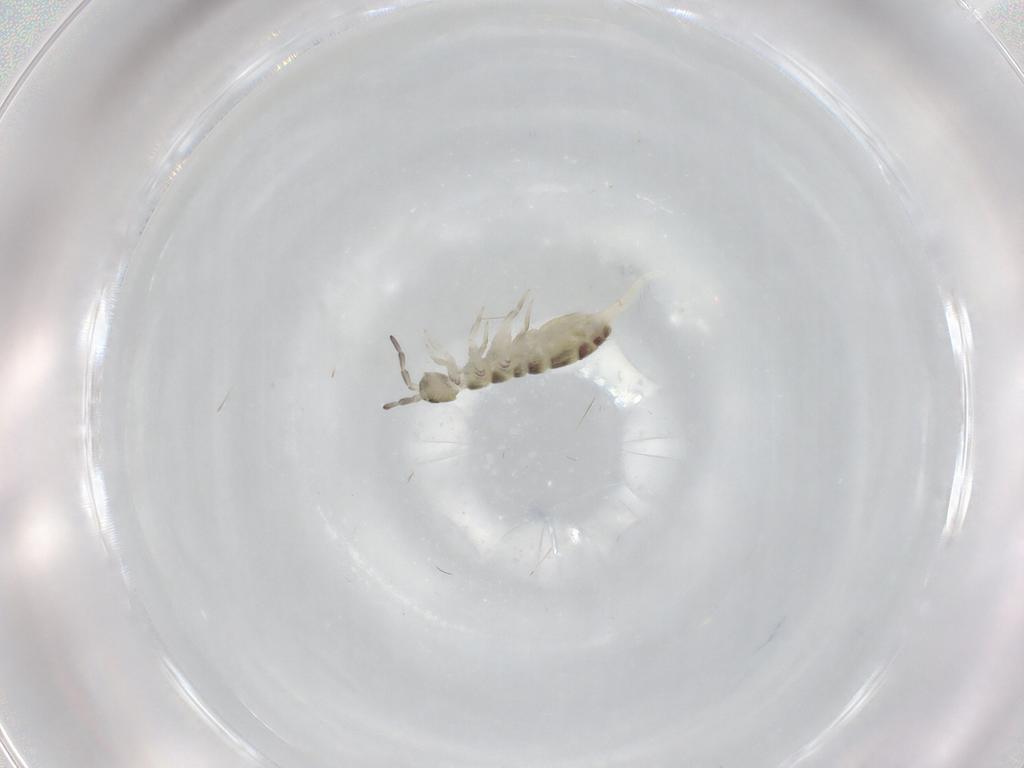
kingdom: Animalia
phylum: Arthropoda
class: Collembola
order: Entomobryomorpha
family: Isotomidae
